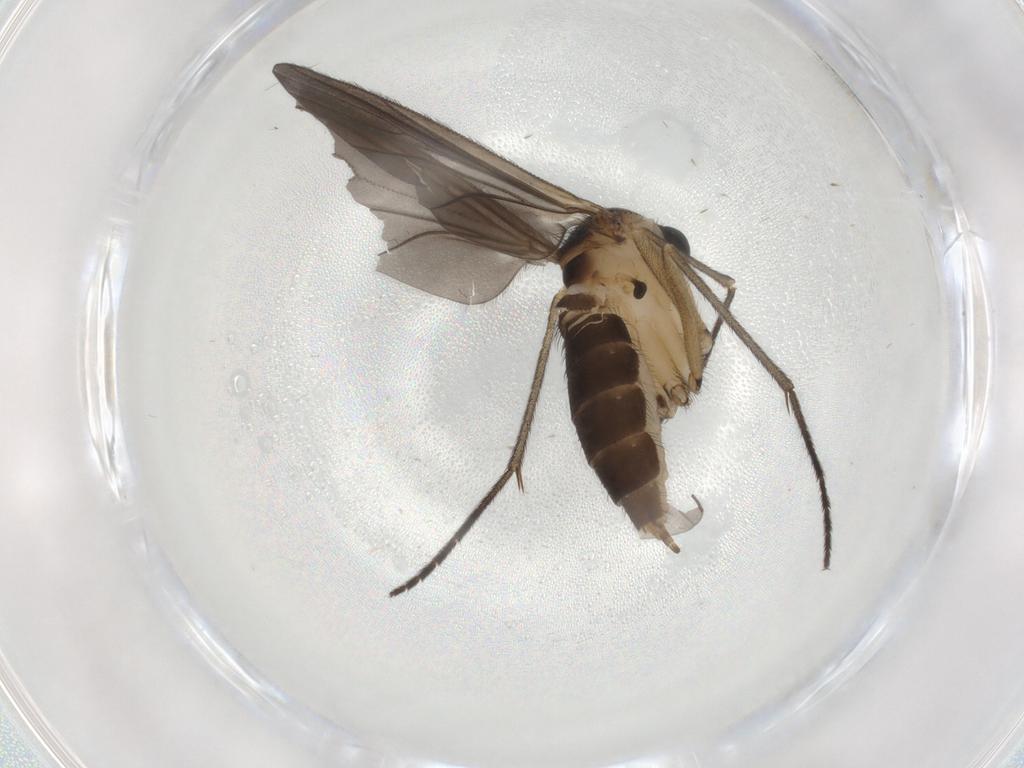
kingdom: Animalia
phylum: Arthropoda
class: Insecta
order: Diptera
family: Sciaridae
